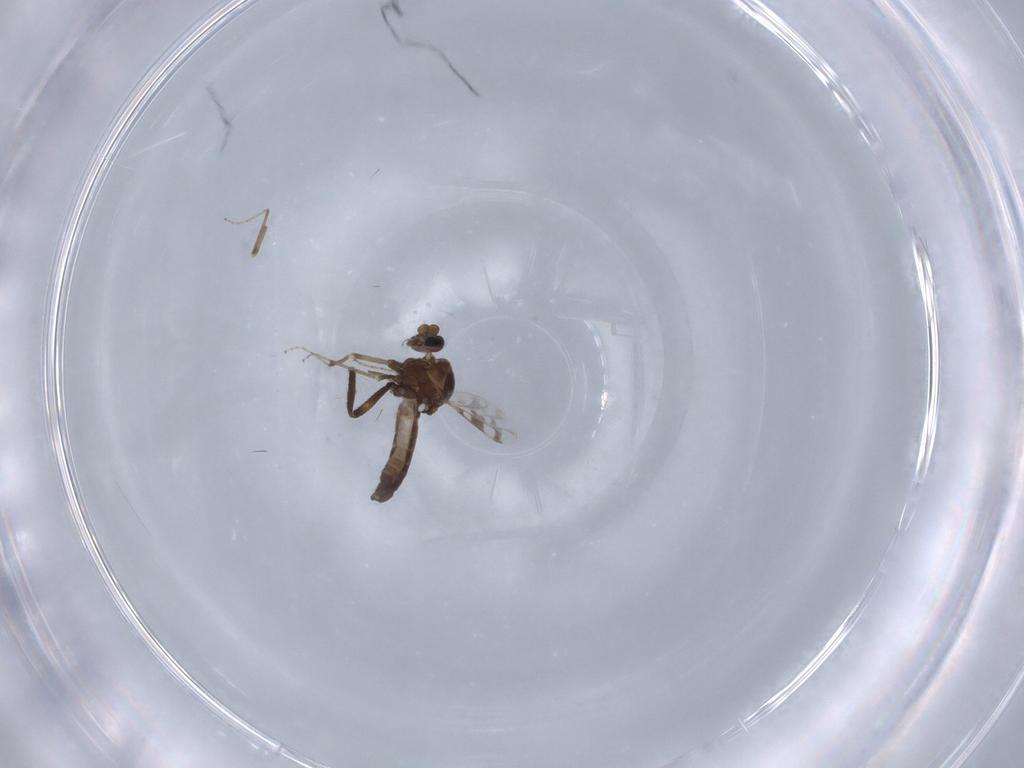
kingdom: Animalia
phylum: Arthropoda
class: Insecta
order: Diptera
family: Ceratopogonidae
